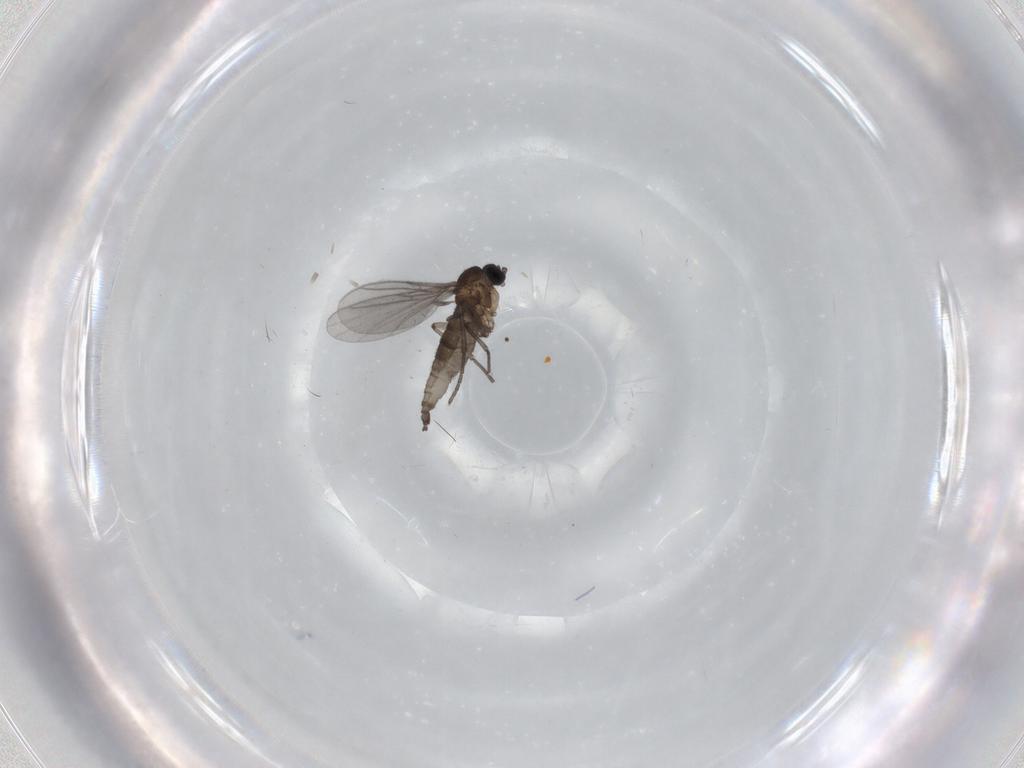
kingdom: Animalia
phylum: Arthropoda
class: Insecta
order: Diptera
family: Sciaridae
